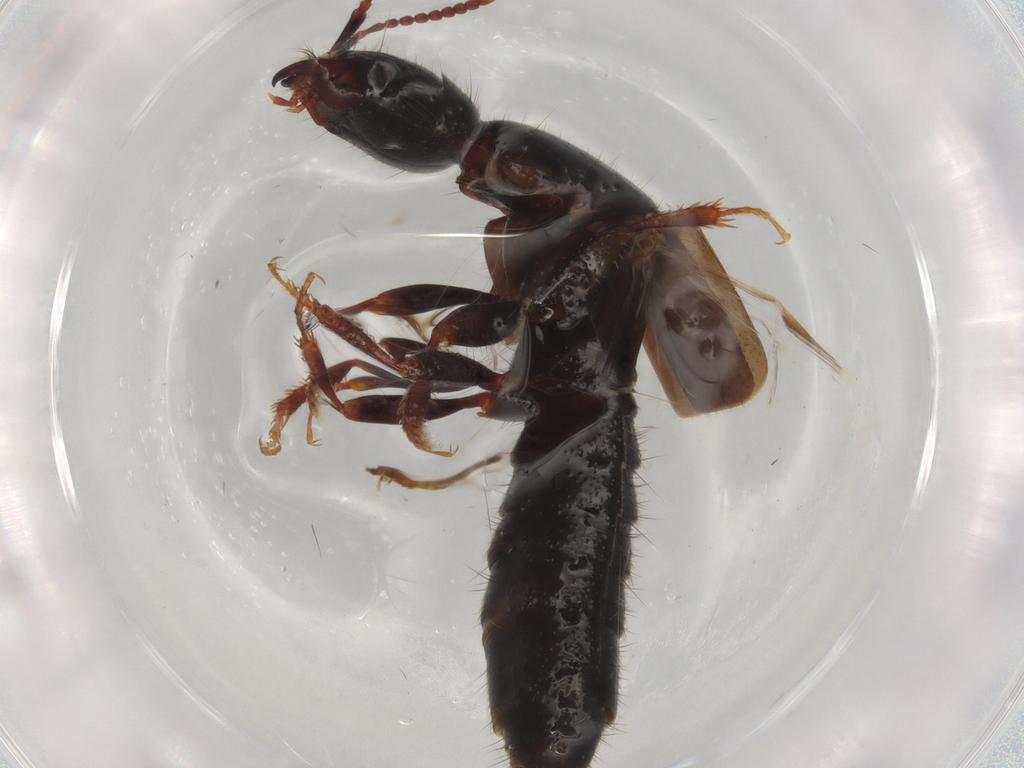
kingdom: Animalia
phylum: Arthropoda
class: Insecta
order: Coleoptera
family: Staphylinidae
